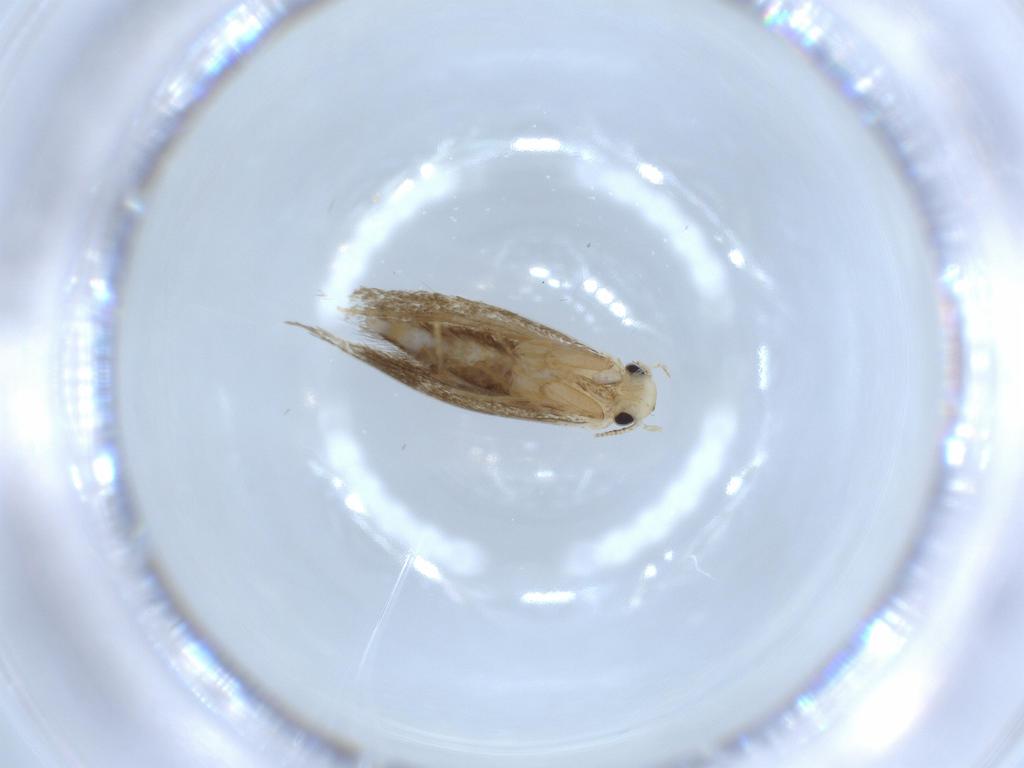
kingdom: Animalia
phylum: Arthropoda
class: Insecta
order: Lepidoptera
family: Tineidae
